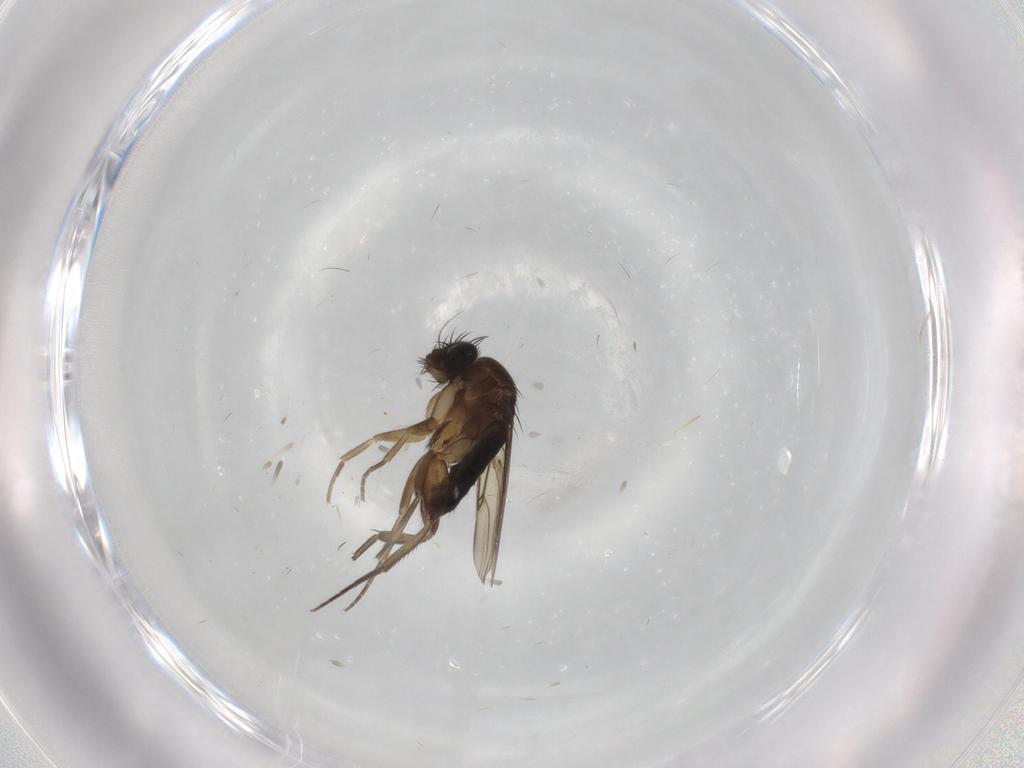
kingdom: Animalia
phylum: Arthropoda
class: Insecta
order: Diptera
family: Phoridae
